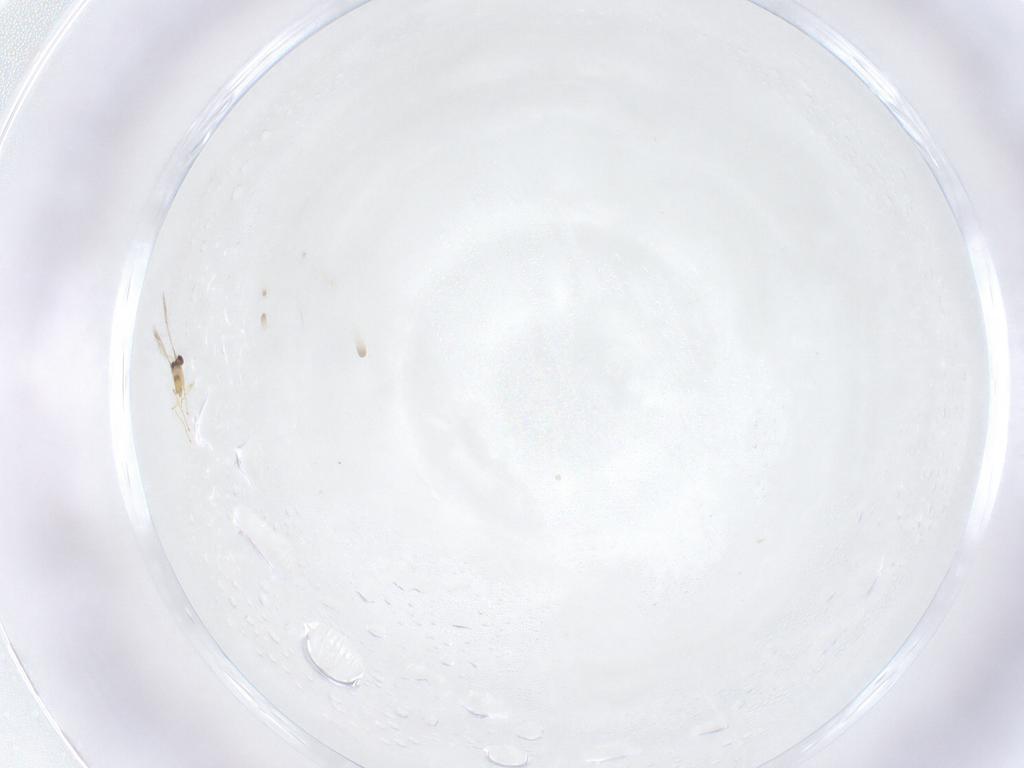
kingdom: Animalia
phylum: Arthropoda
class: Insecta
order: Hymenoptera
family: Mymaridae
